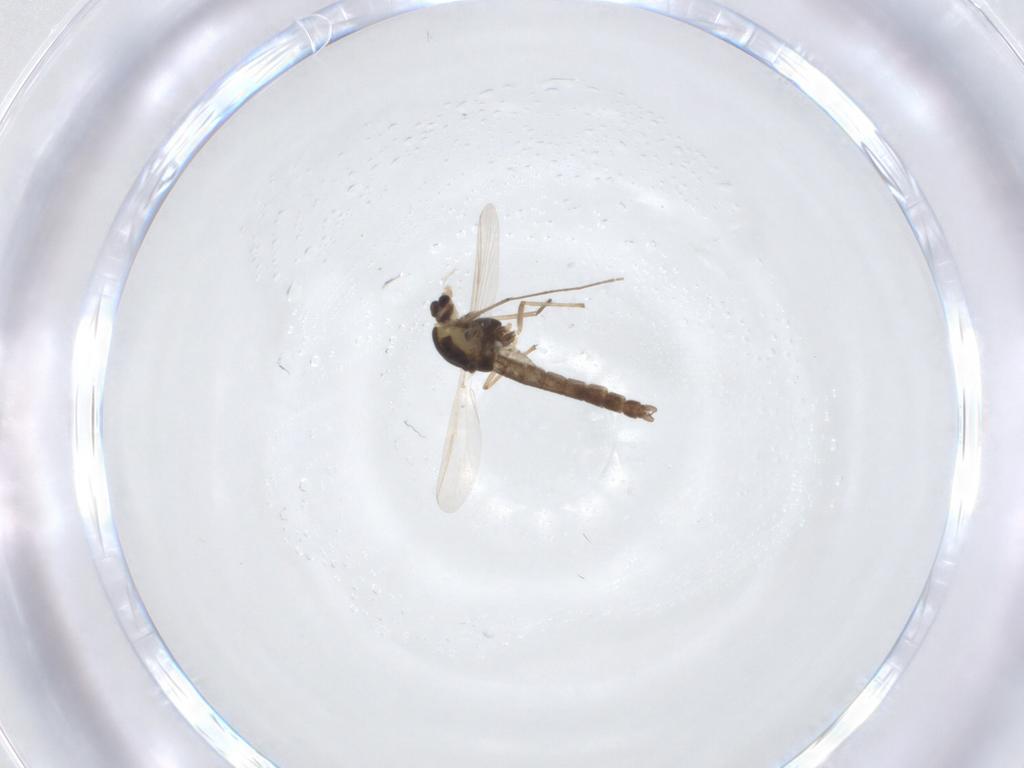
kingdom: Animalia
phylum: Arthropoda
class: Insecta
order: Diptera
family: Chironomidae
